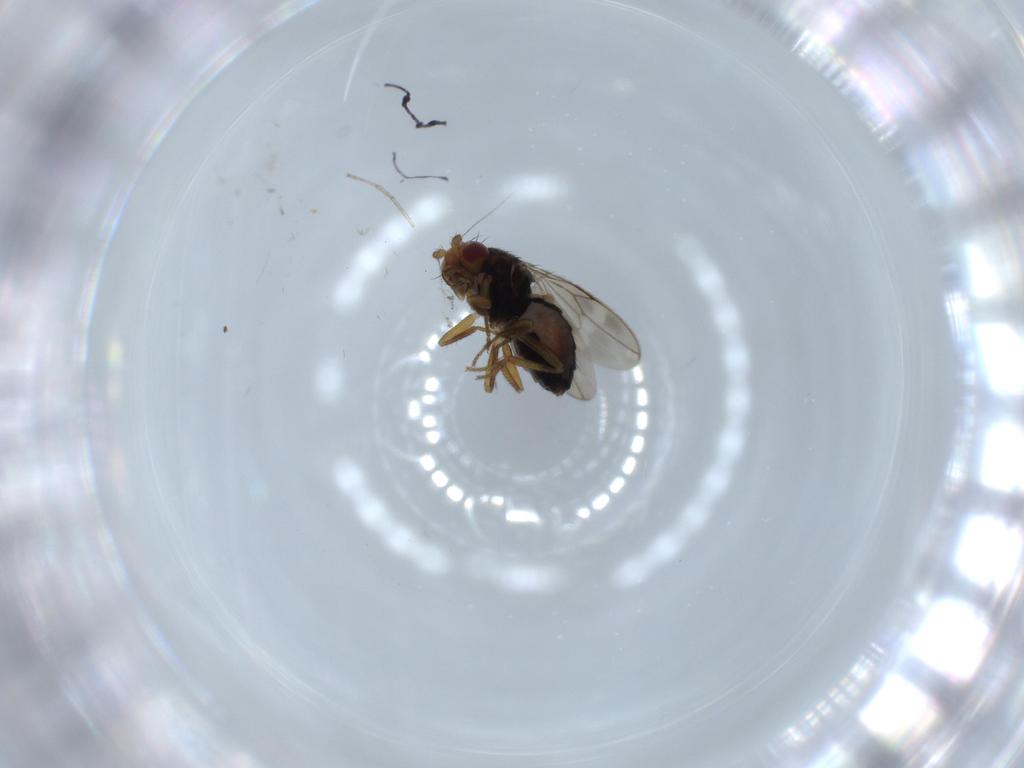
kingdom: Animalia
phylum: Arthropoda
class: Insecta
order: Diptera
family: Sphaeroceridae
